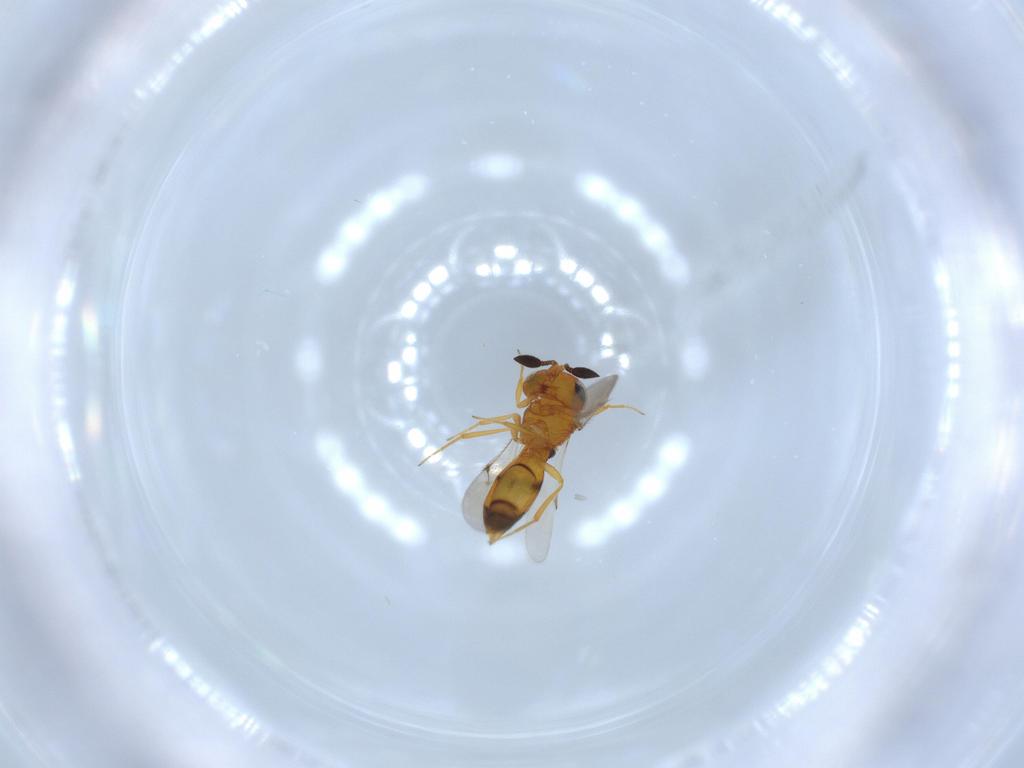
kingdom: Animalia
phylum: Arthropoda
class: Insecta
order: Hymenoptera
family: Scelionidae
